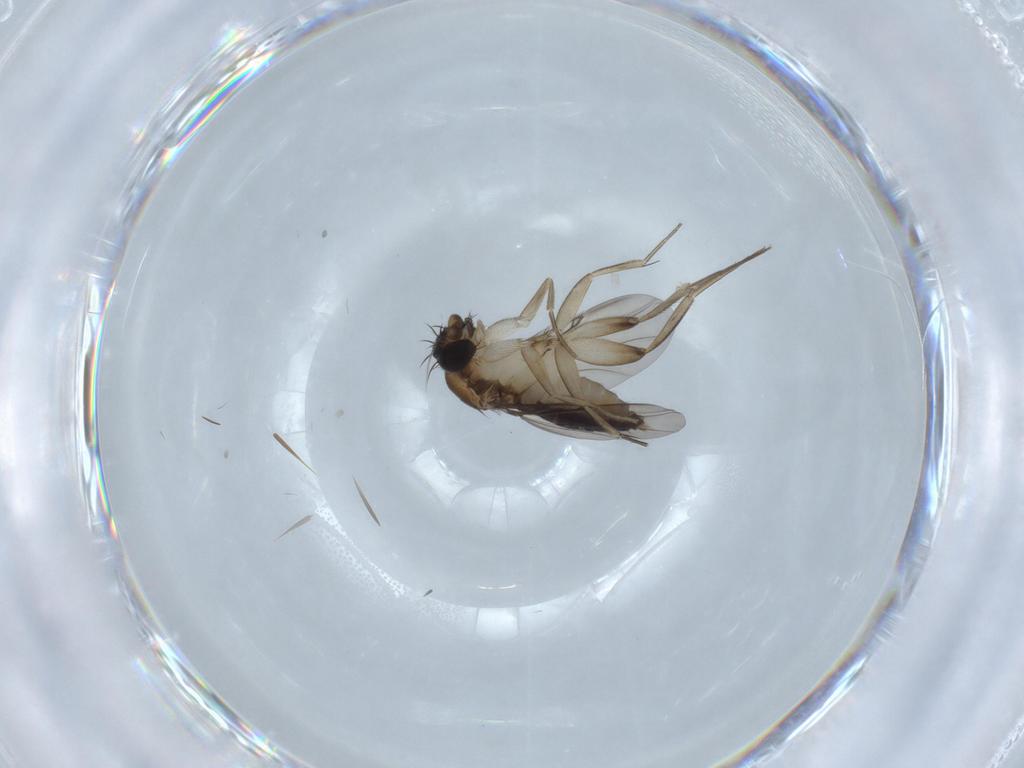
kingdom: Animalia
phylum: Arthropoda
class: Insecta
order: Diptera
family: Phoridae
